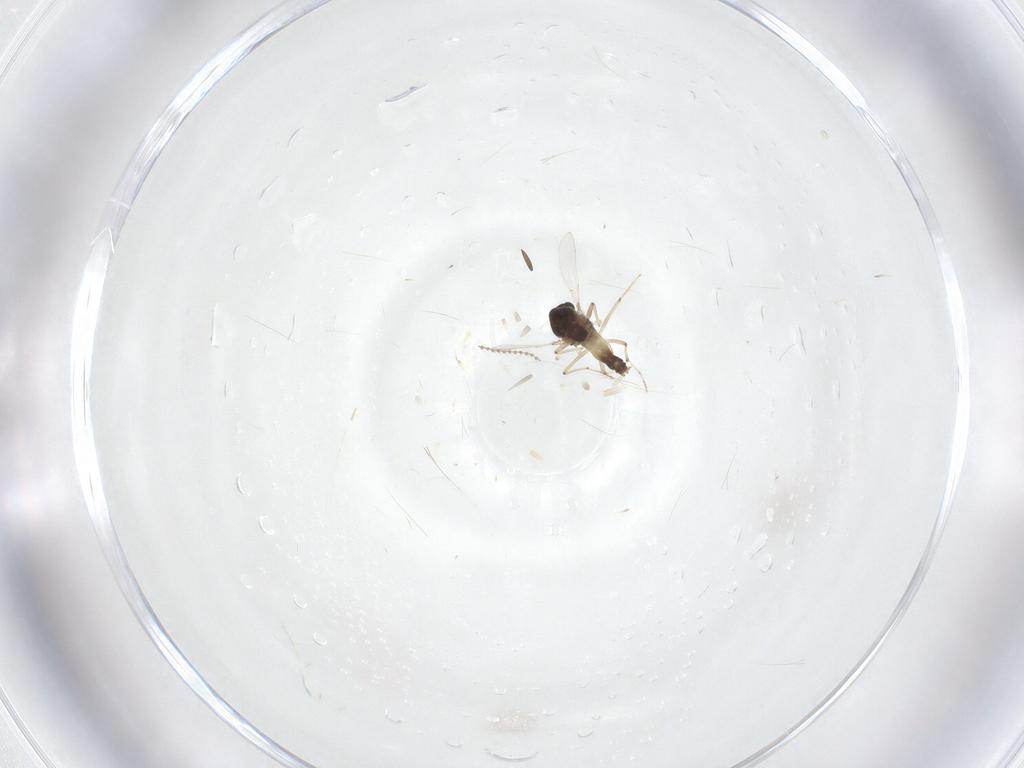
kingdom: Animalia
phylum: Arthropoda
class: Insecta
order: Diptera
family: Chironomidae
